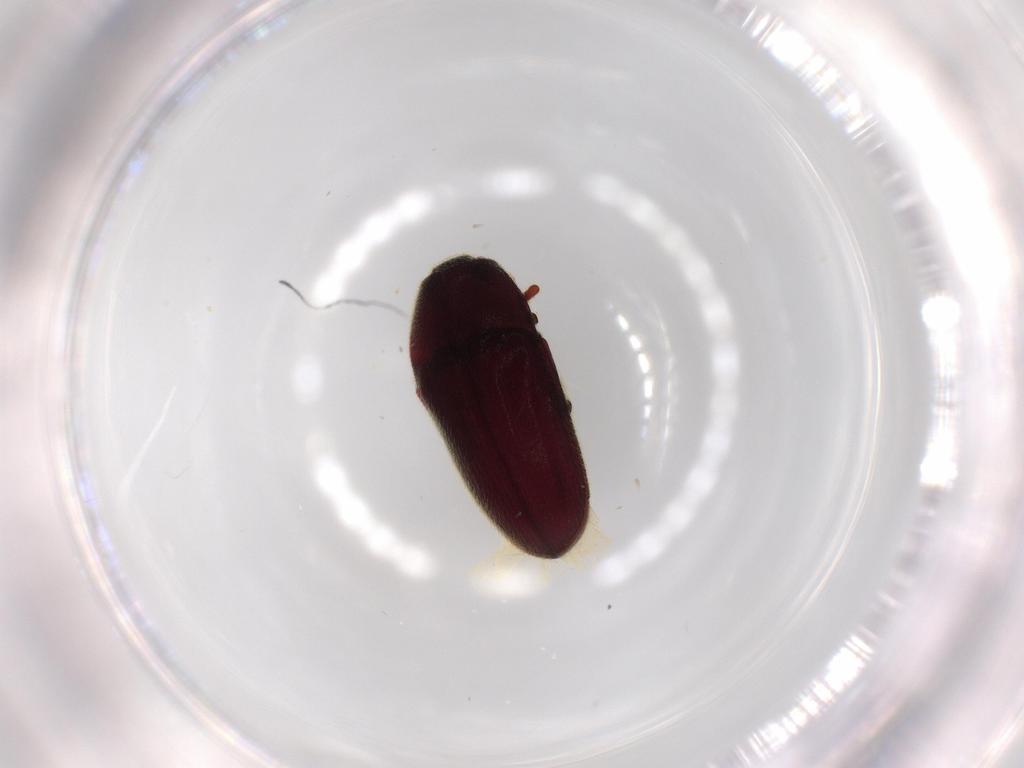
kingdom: Animalia
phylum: Arthropoda
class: Insecta
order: Coleoptera
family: Throscidae
